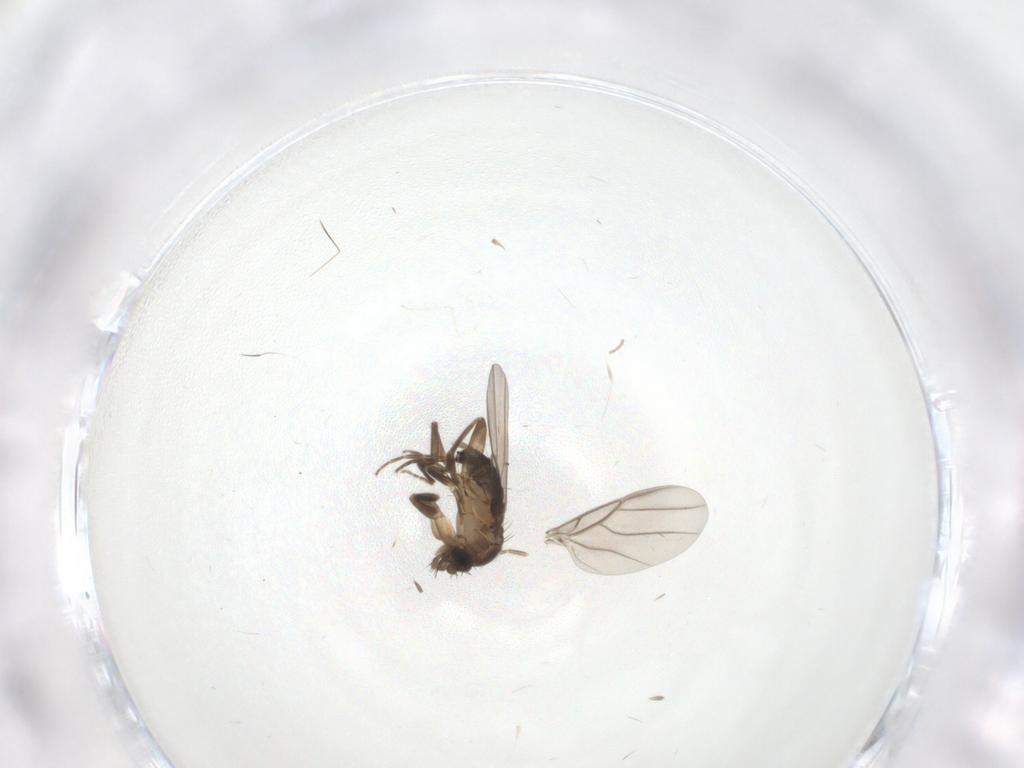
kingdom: Animalia
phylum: Arthropoda
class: Insecta
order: Diptera
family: Phoridae
